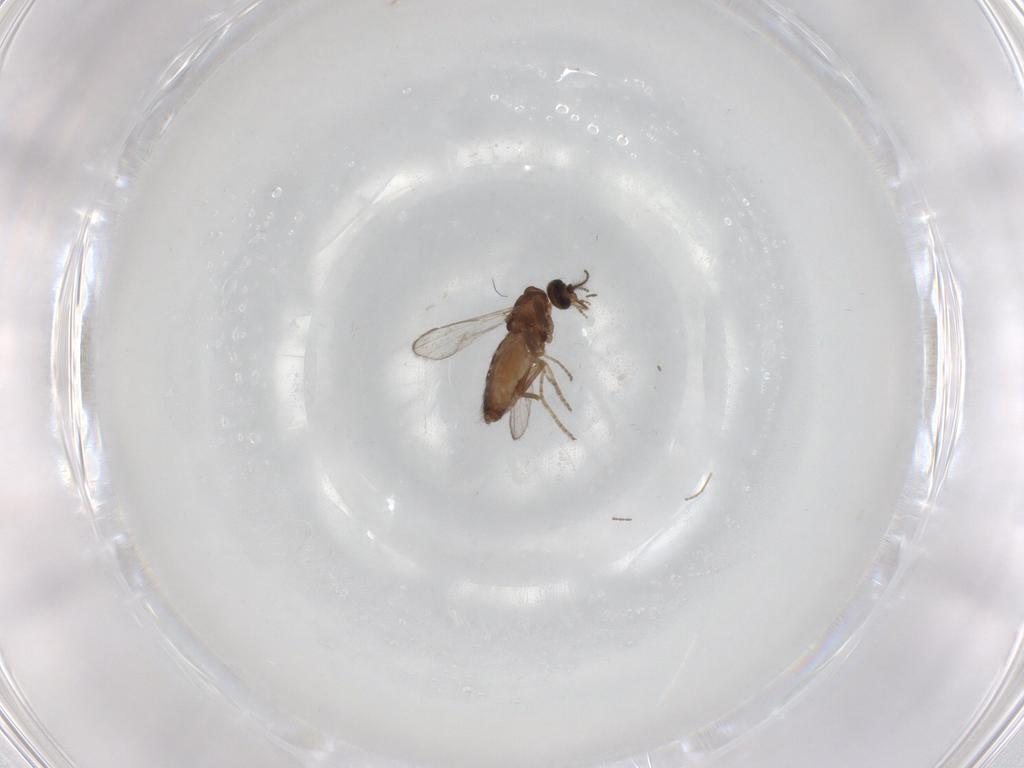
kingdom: Animalia
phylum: Arthropoda
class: Insecta
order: Diptera
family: Ceratopogonidae
